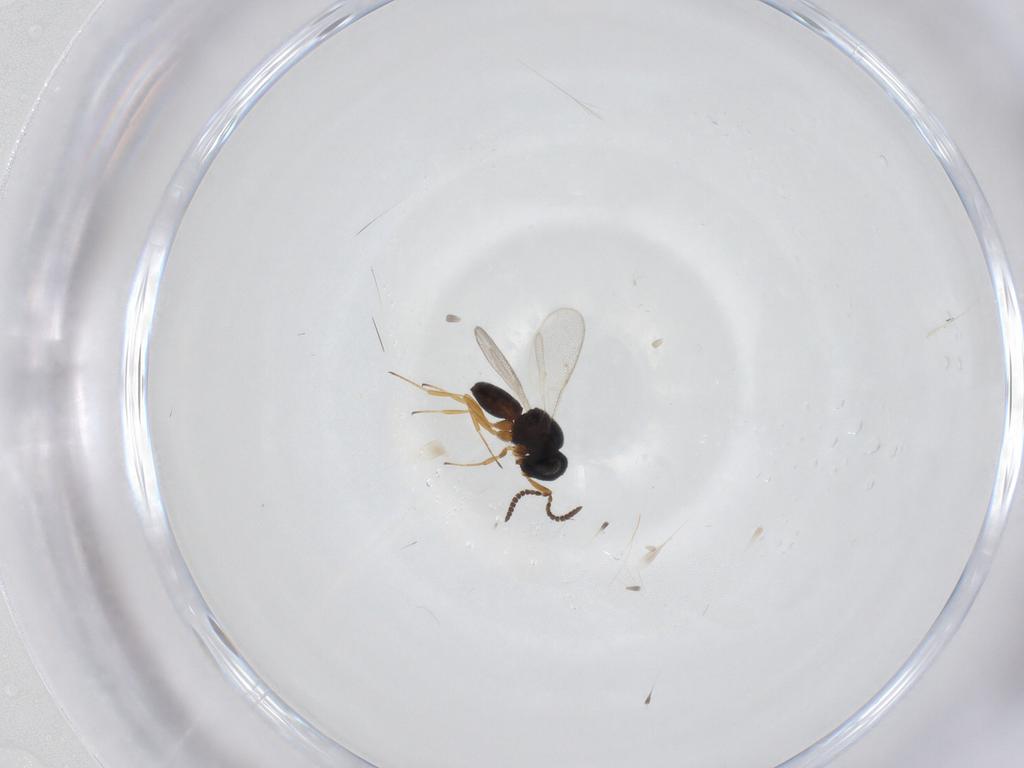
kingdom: Animalia
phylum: Arthropoda
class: Insecta
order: Hymenoptera
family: Scelionidae
